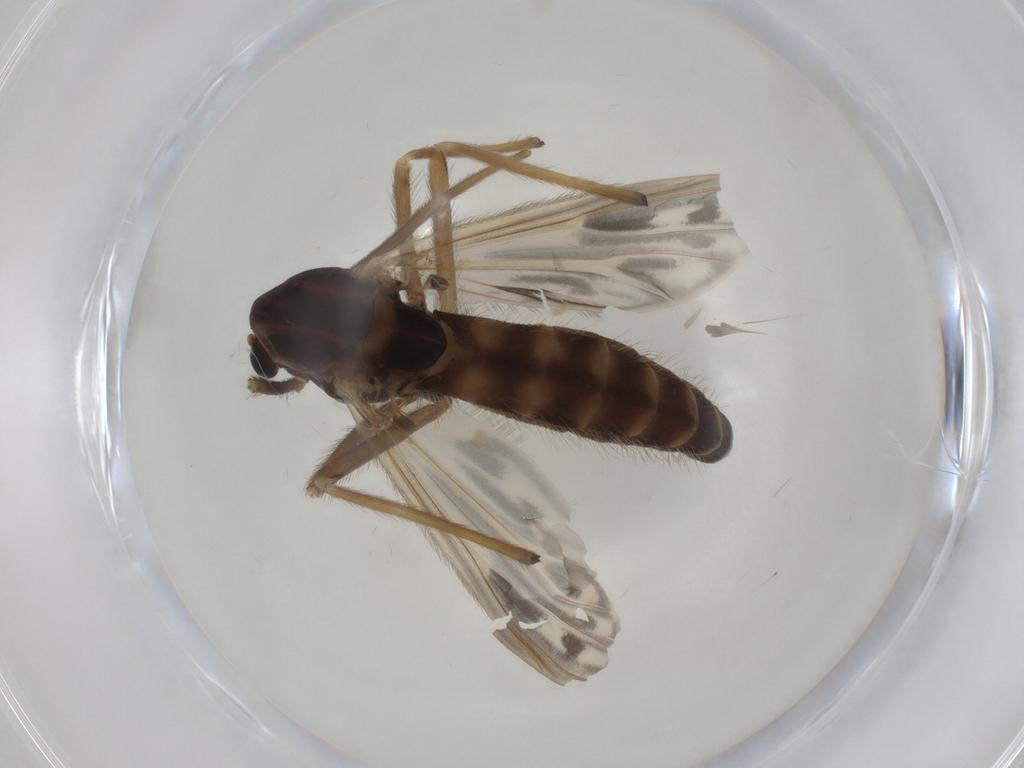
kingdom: Animalia
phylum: Arthropoda
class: Insecta
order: Diptera
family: Chironomidae
